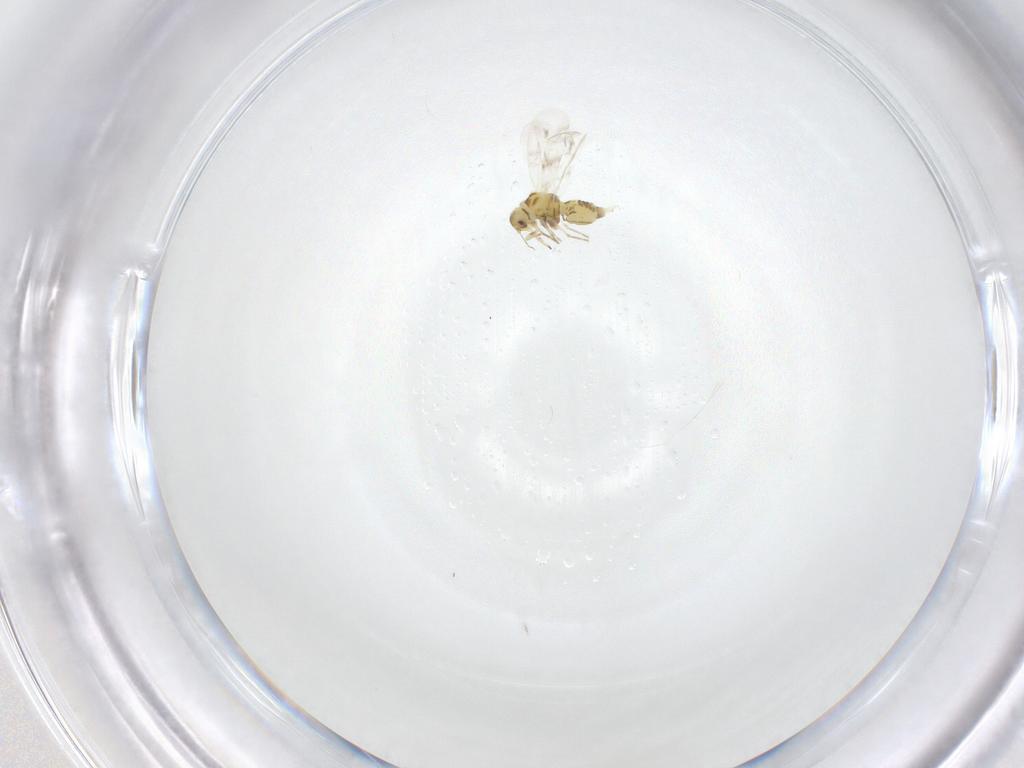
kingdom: Animalia
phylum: Arthropoda
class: Insecta
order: Hemiptera
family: Aleyrodidae
